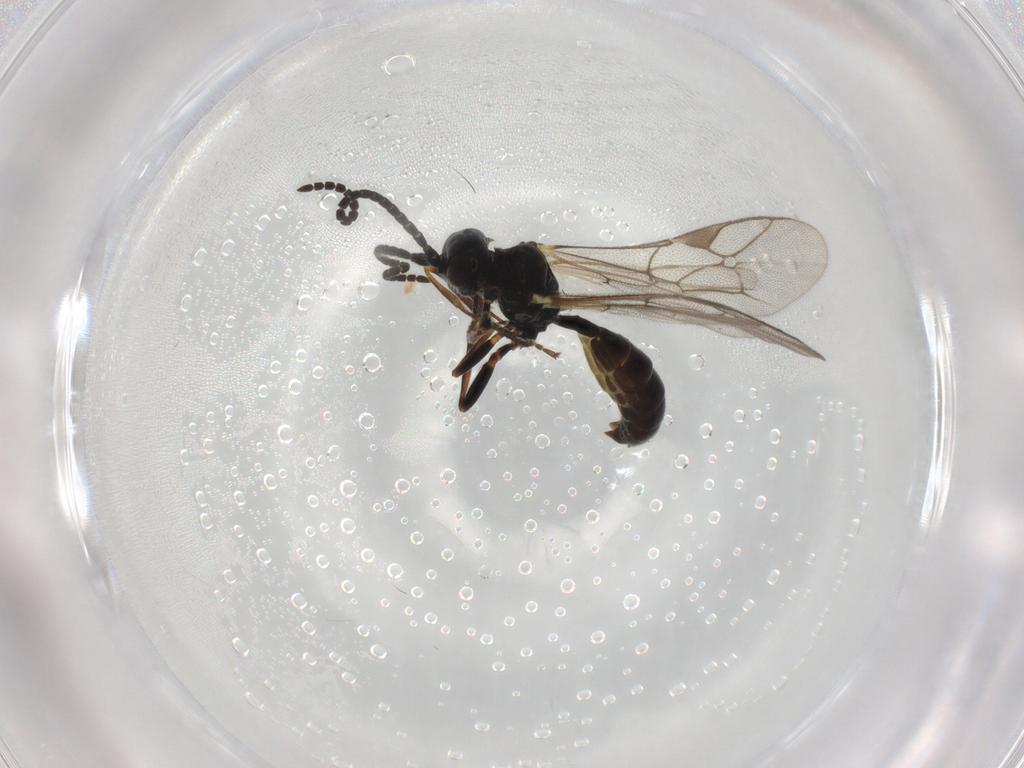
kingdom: Animalia
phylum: Arthropoda
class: Insecta
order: Hymenoptera
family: Ichneumonidae
